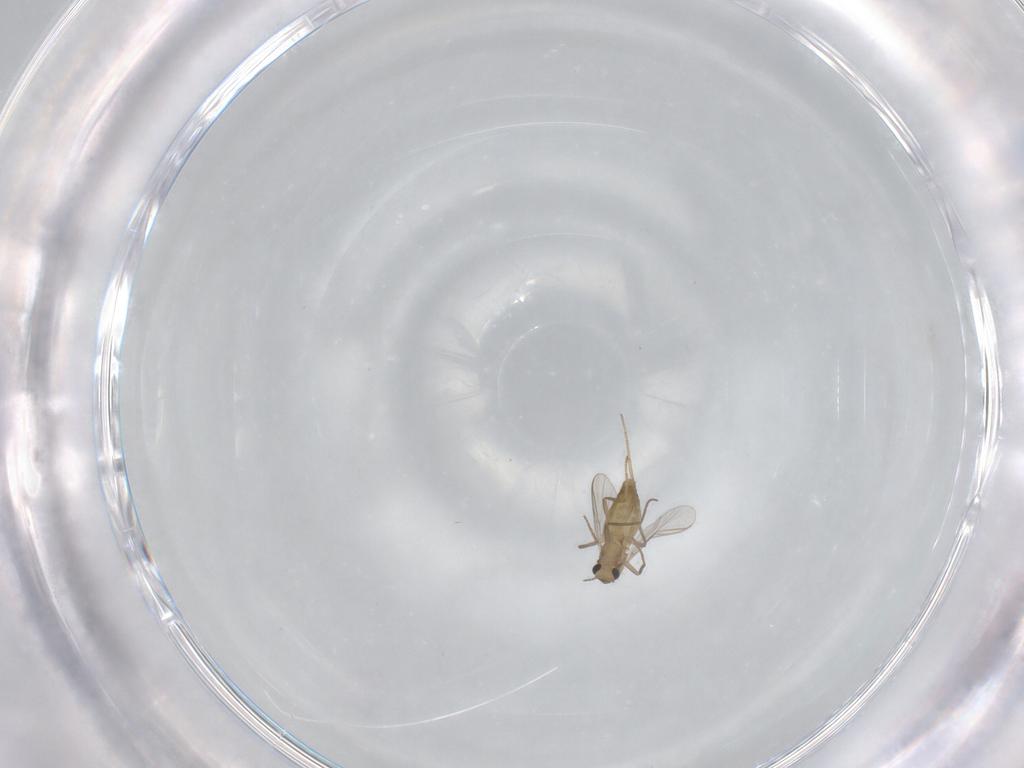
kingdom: Animalia
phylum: Arthropoda
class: Insecta
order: Diptera
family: Chironomidae
